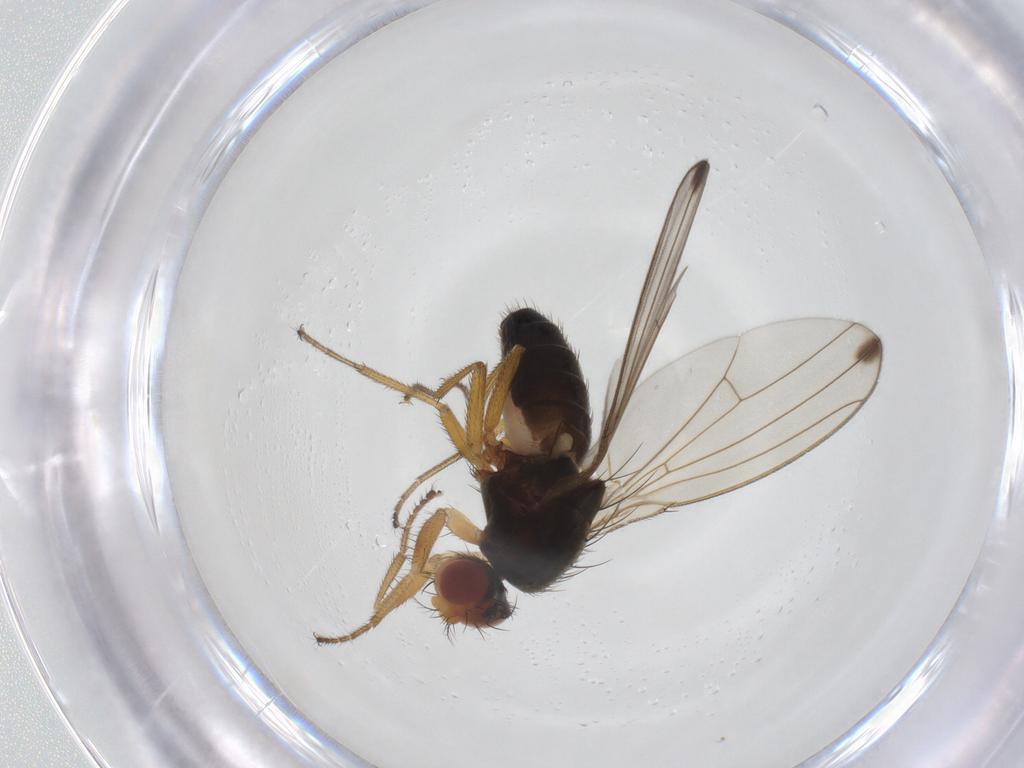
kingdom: Animalia
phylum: Arthropoda
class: Insecta
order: Diptera
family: Drosophilidae
